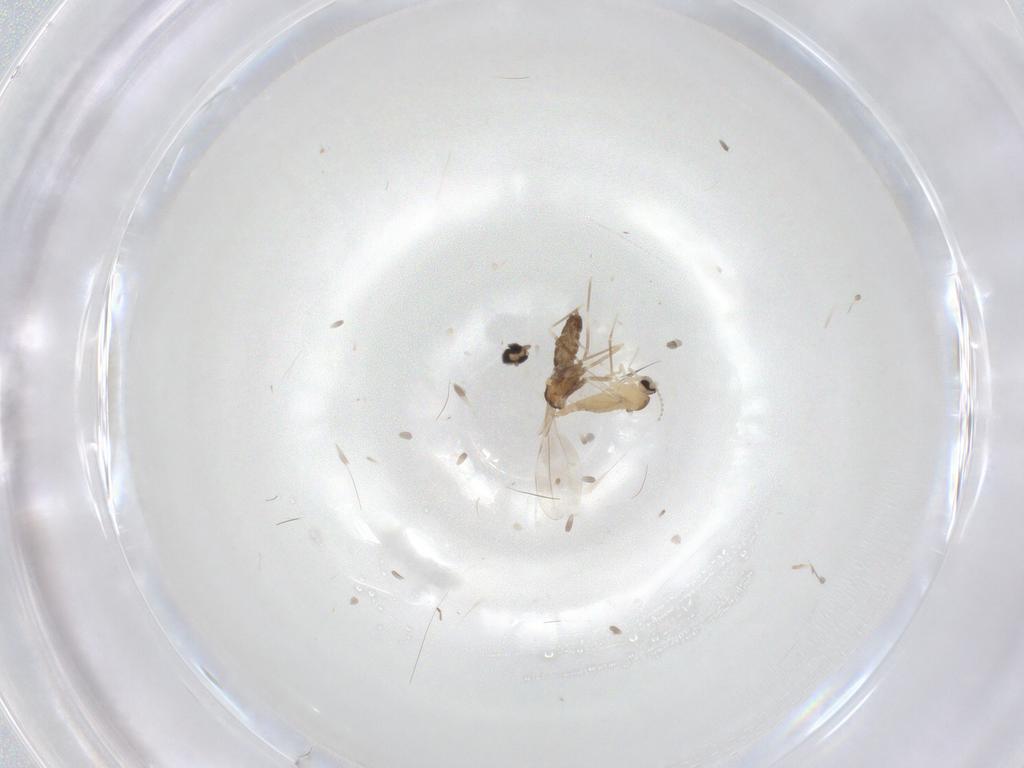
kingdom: Animalia
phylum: Arthropoda
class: Insecta
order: Diptera
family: Cecidomyiidae
